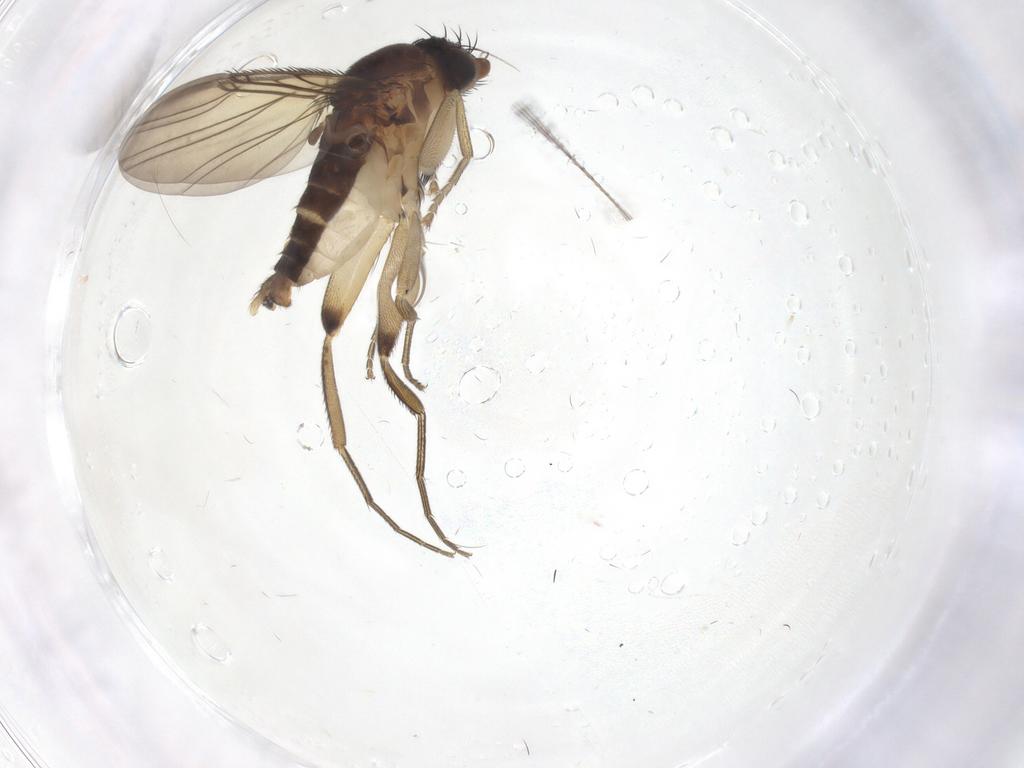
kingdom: Animalia
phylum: Arthropoda
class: Insecta
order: Diptera
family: Phoridae
